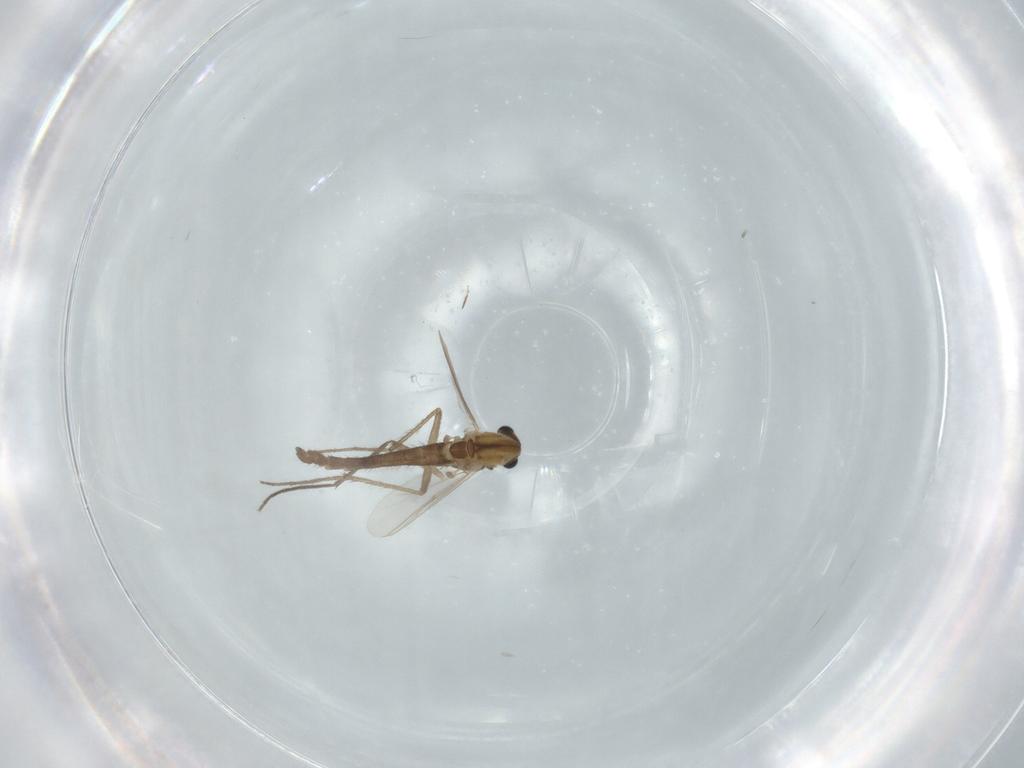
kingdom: Animalia
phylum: Arthropoda
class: Insecta
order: Diptera
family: Chironomidae
